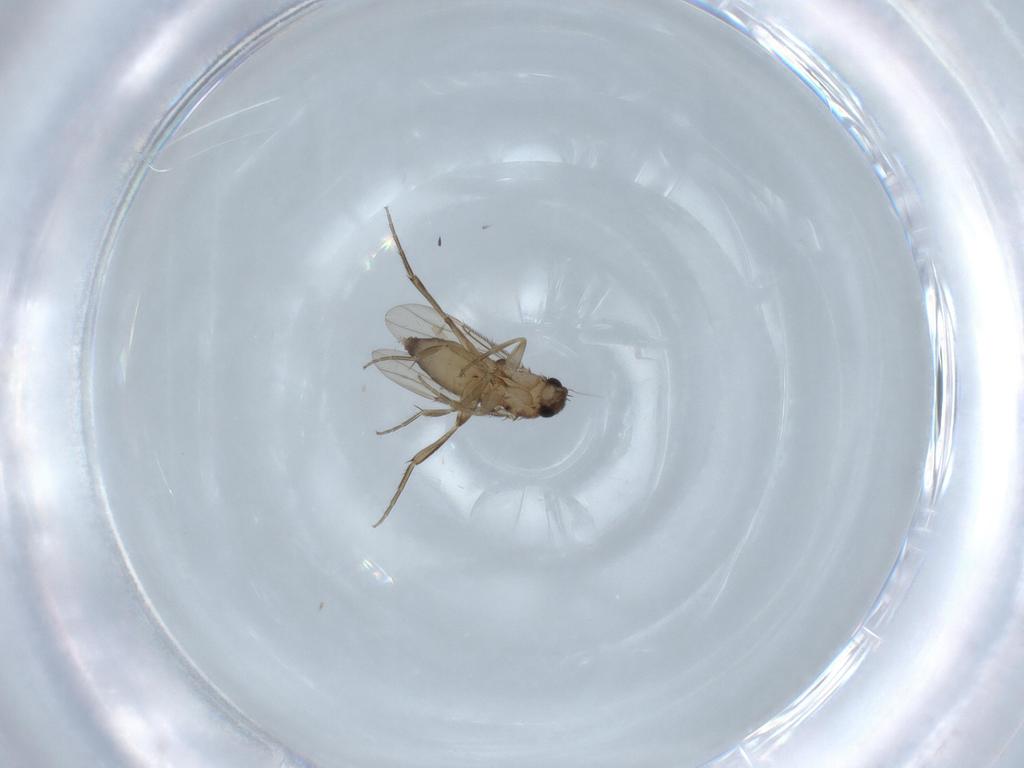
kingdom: Animalia
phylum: Arthropoda
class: Insecta
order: Diptera
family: Phoridae
